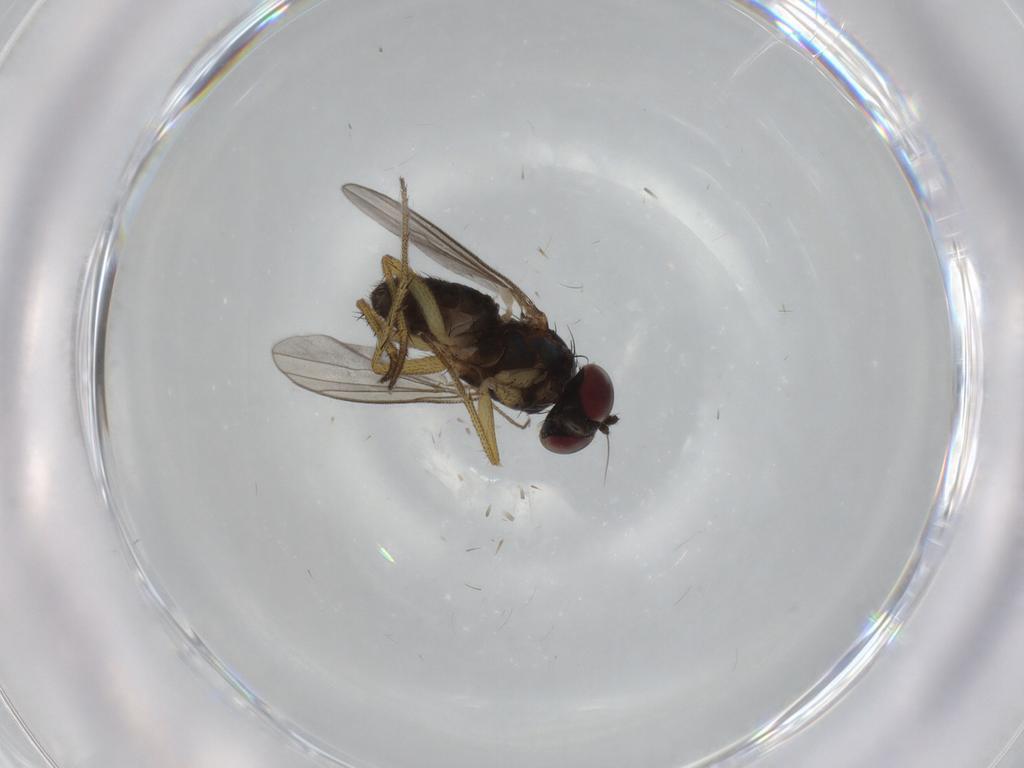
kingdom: Animalia
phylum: Arthropoda
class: Insecta
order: Diptera
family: Dolichopodidae
